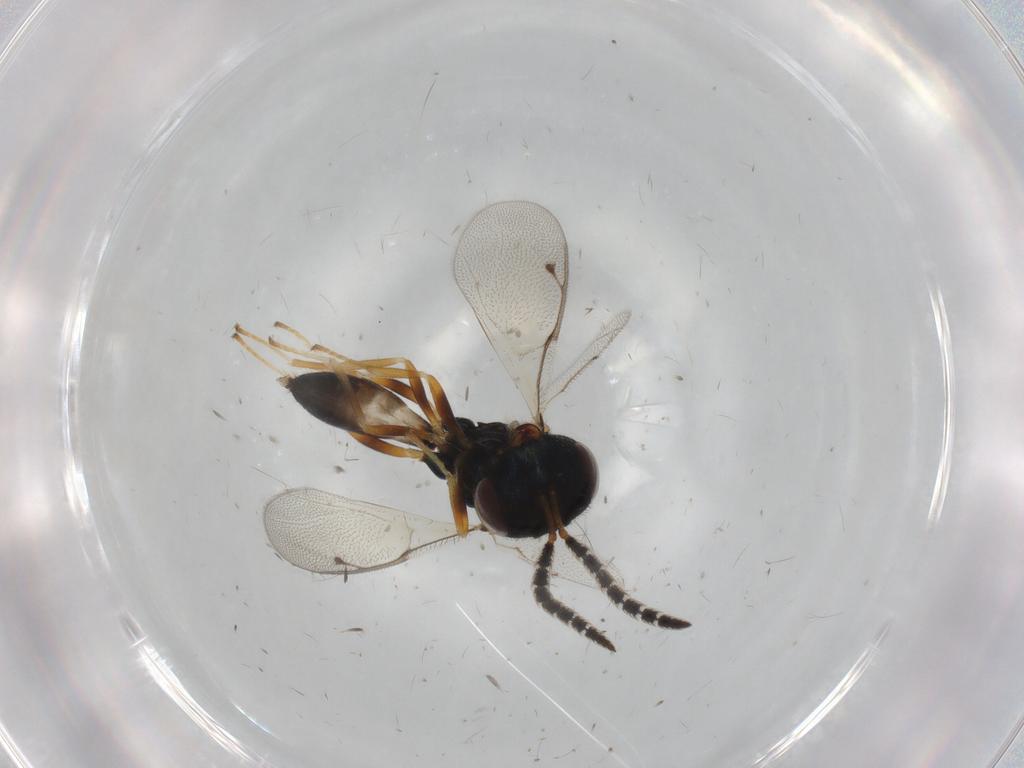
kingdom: Animalia
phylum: Arthropoda
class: Insecta
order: Hymenoptera
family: Agaonidae
